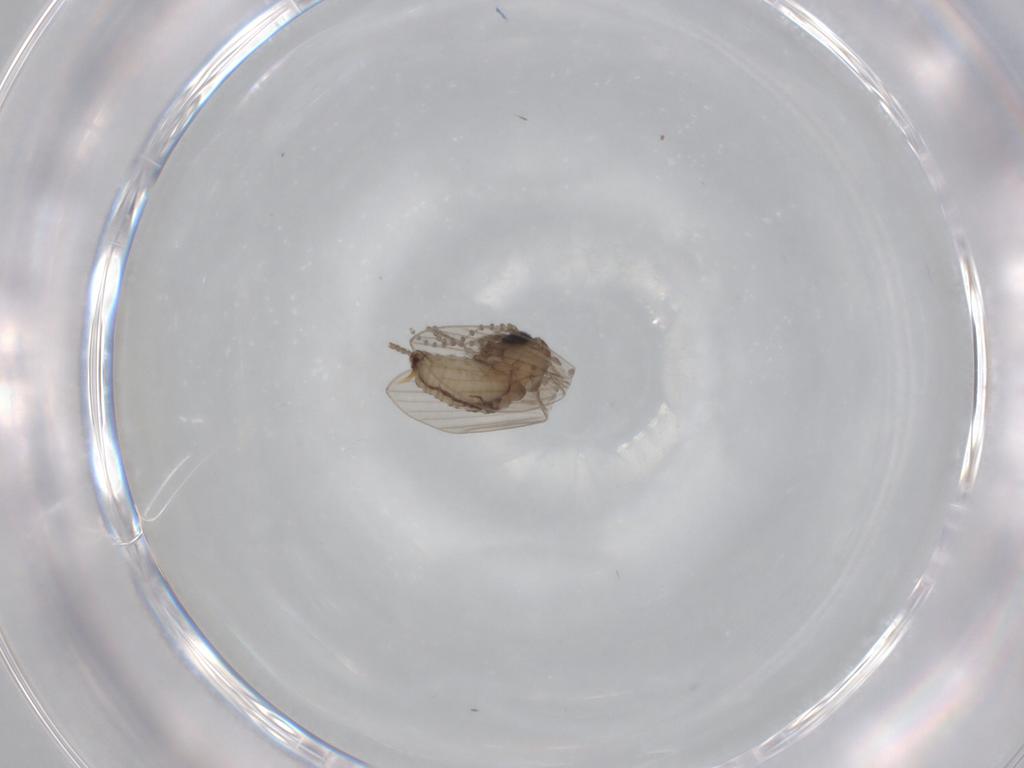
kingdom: Animalia
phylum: Arthropoda
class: Insecta
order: Diptera
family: Psychodidae
